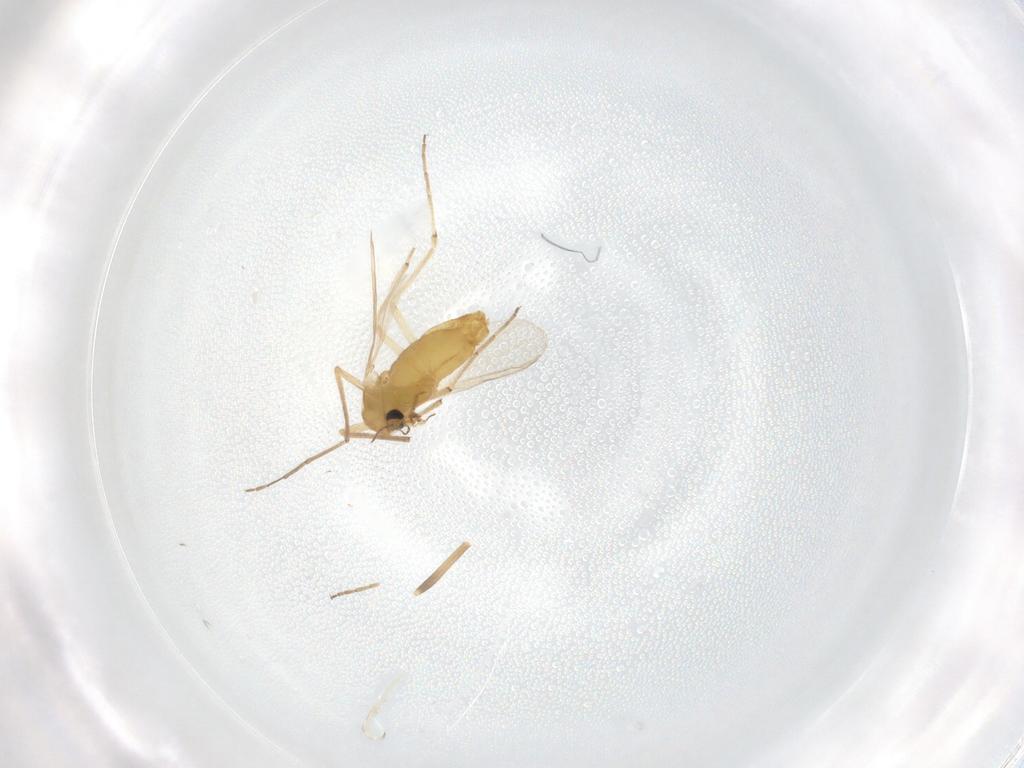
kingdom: Animalia
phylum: Arthropoda
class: Insecta
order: Diptera
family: Chironomidae
